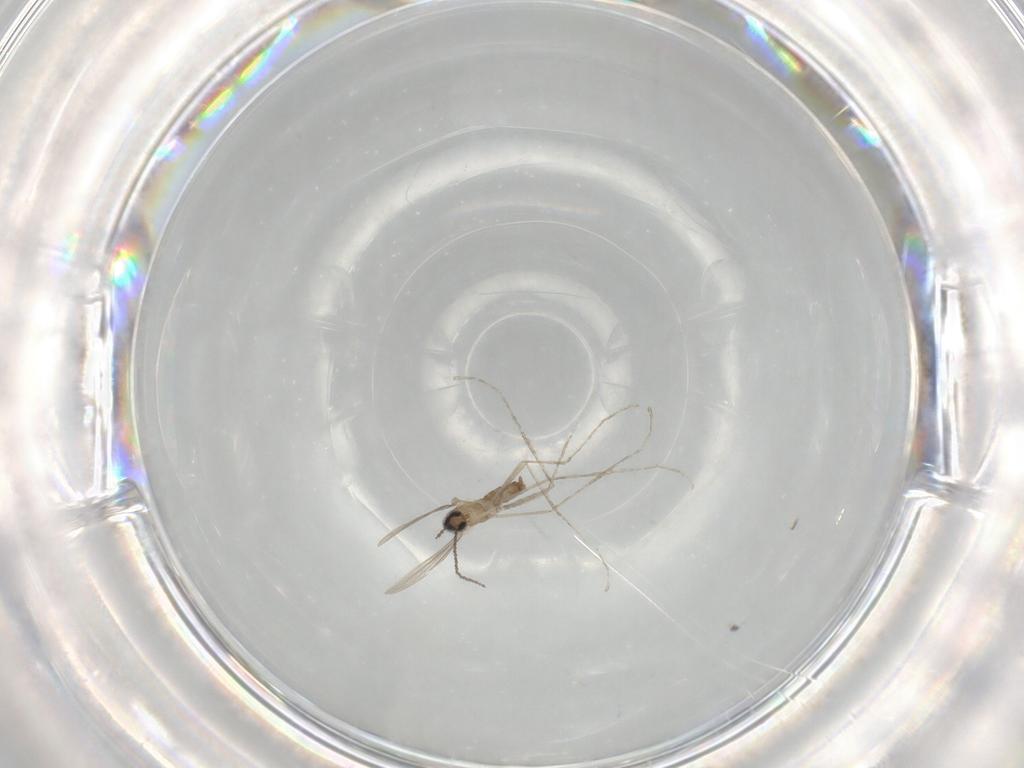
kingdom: Animalia
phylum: Arthropoda
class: Insecta
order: Diptera
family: Cecidomyiidae
